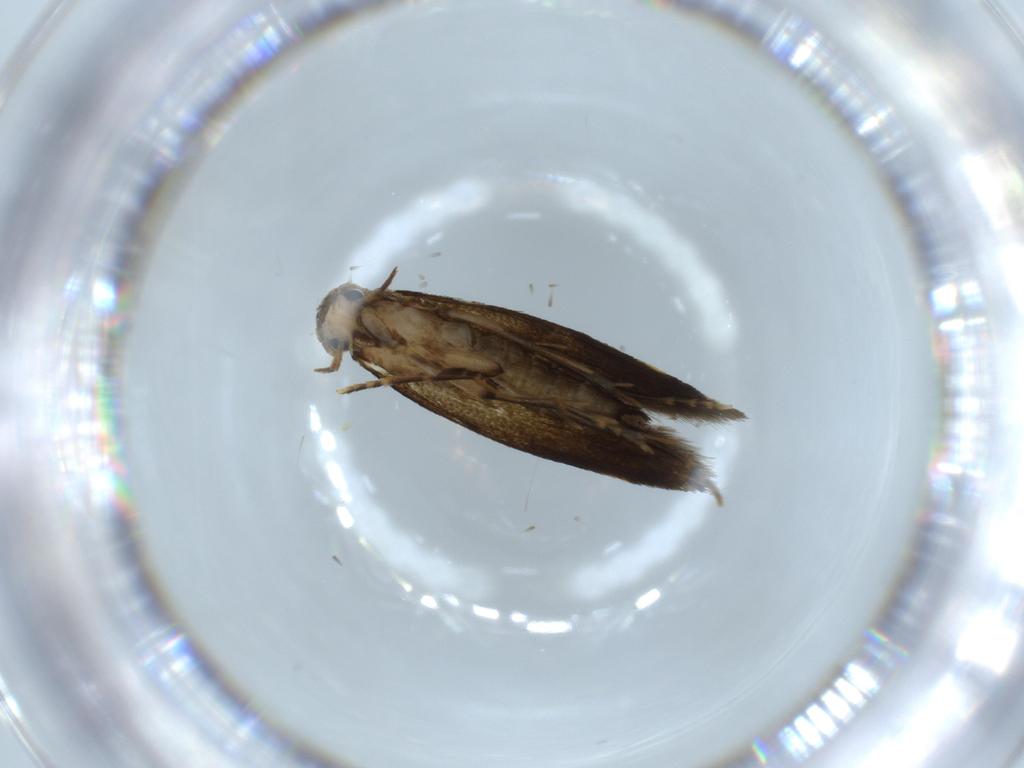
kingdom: Animalia
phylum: Arthropoda
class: Insecta
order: Lepidoptera
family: Tineidae
